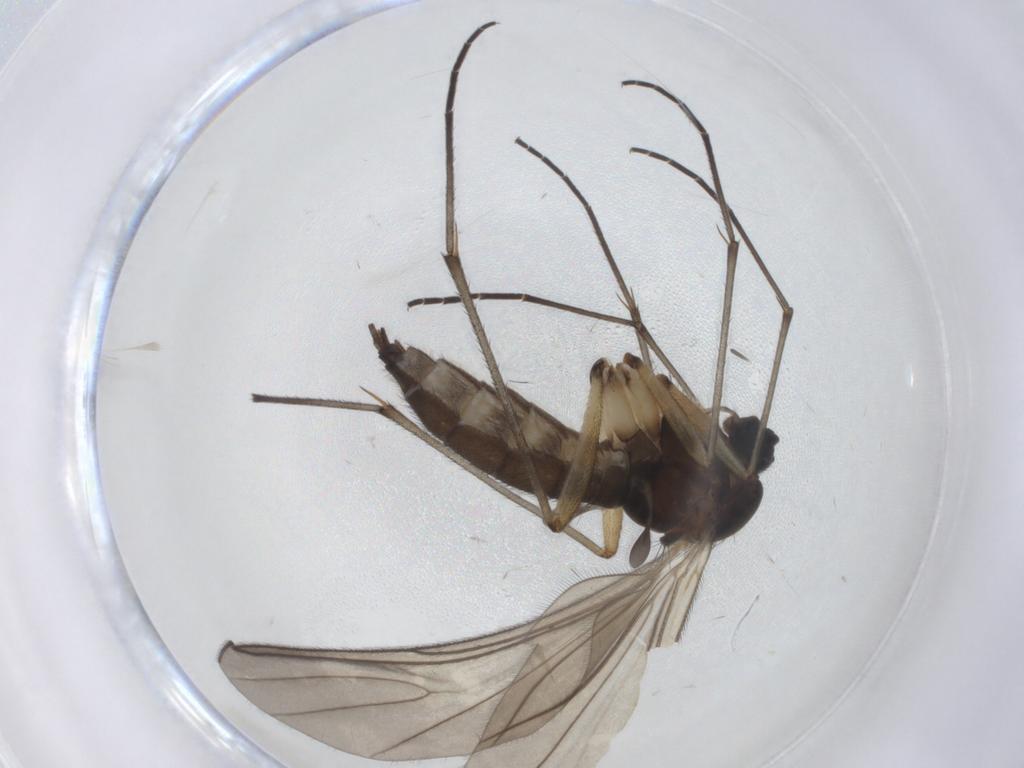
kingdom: Animalia
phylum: Arthropoda
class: Insecta
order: Diptera
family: Sciaridae
